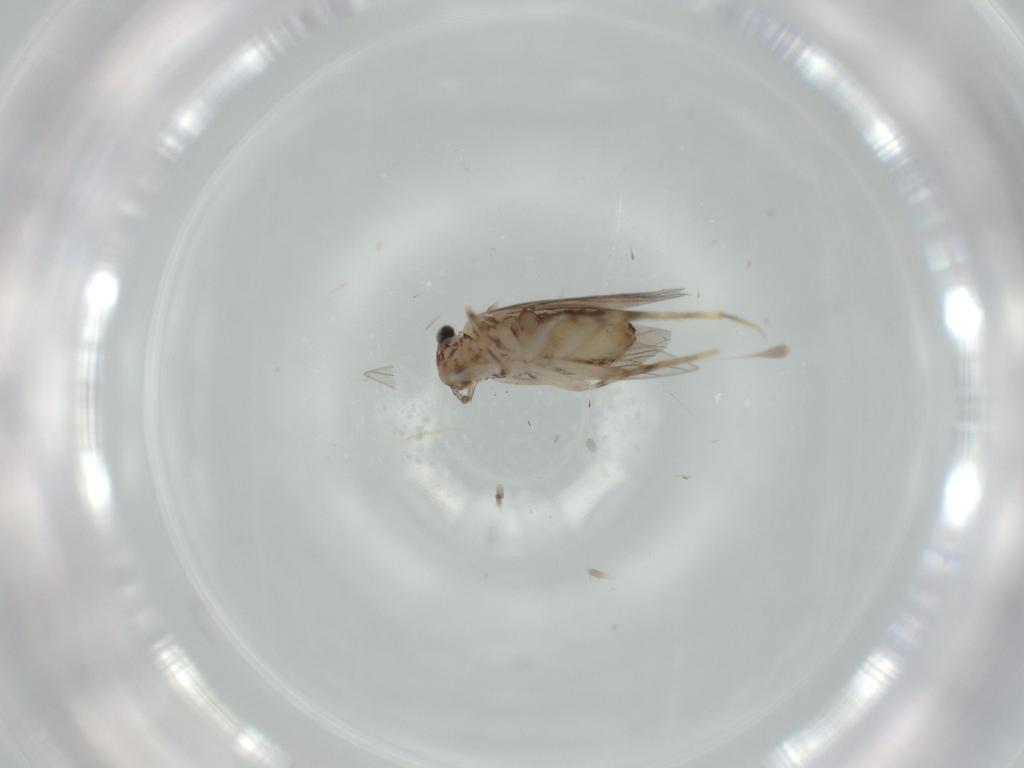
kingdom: Animalia
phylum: Arthropoda
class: Insecta
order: Psocodea
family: Lepidopsocidae
